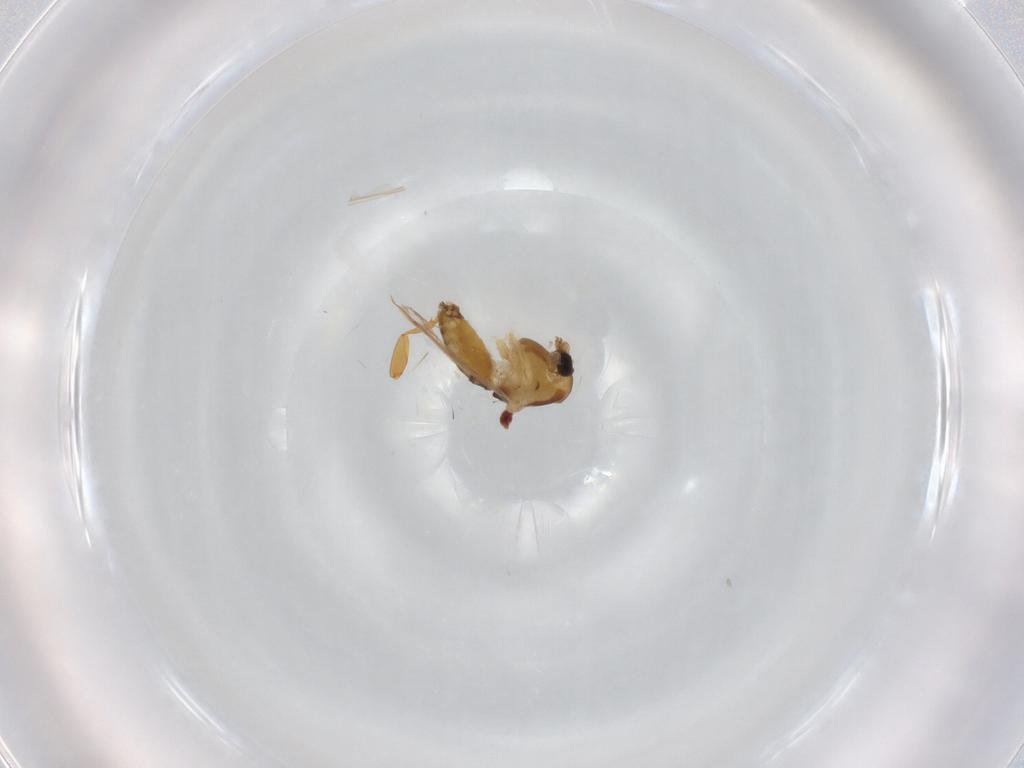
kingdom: Animalia
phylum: Arthropoda
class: Insecta
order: Diptera
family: Chironomidae
